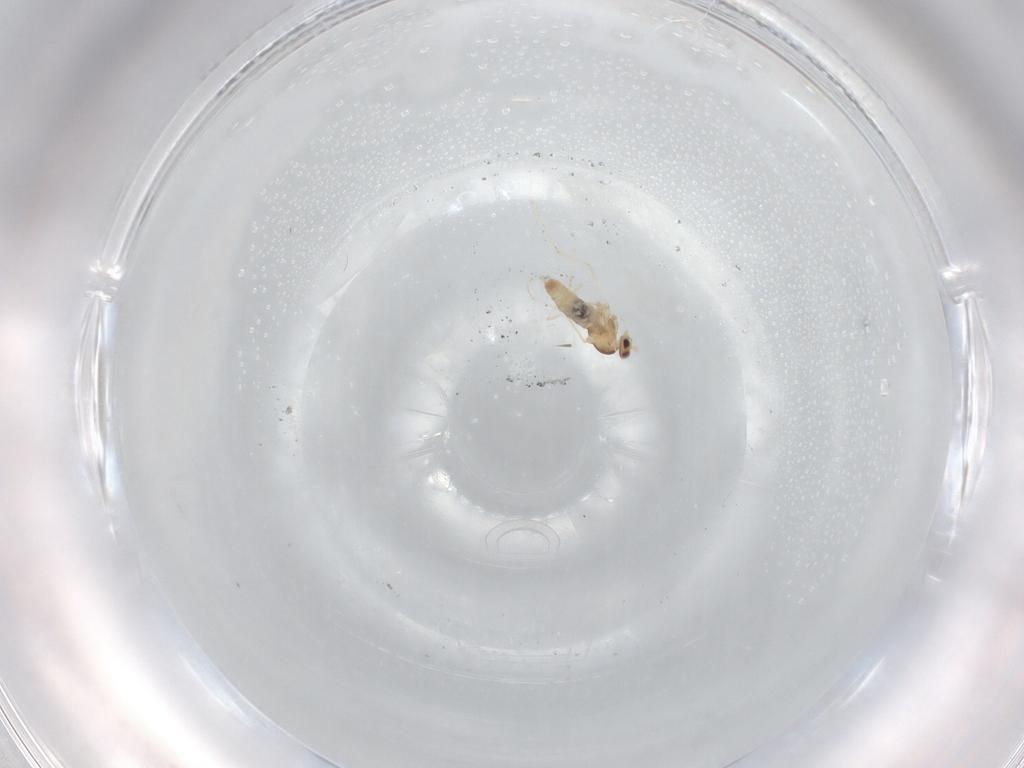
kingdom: Animalia
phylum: Arthropoda
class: Insecta
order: Diptera
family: Cecidomyiidae
